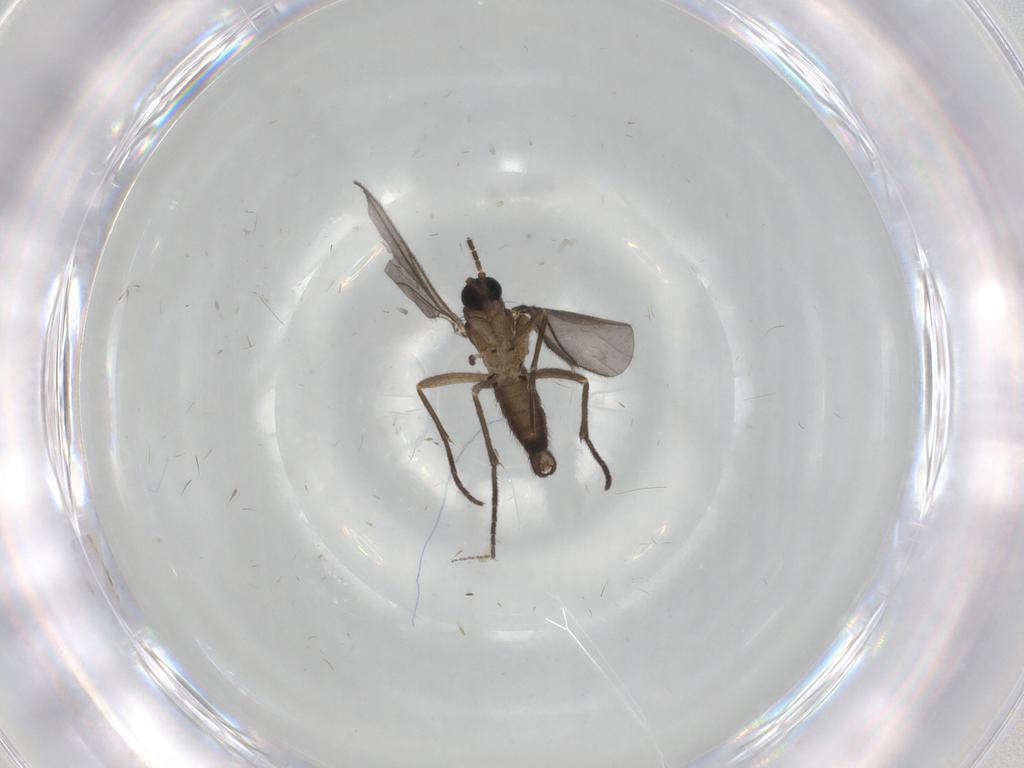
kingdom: Animalia
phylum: Arthropoda
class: Insecta
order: Diptera
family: Sciaridae
